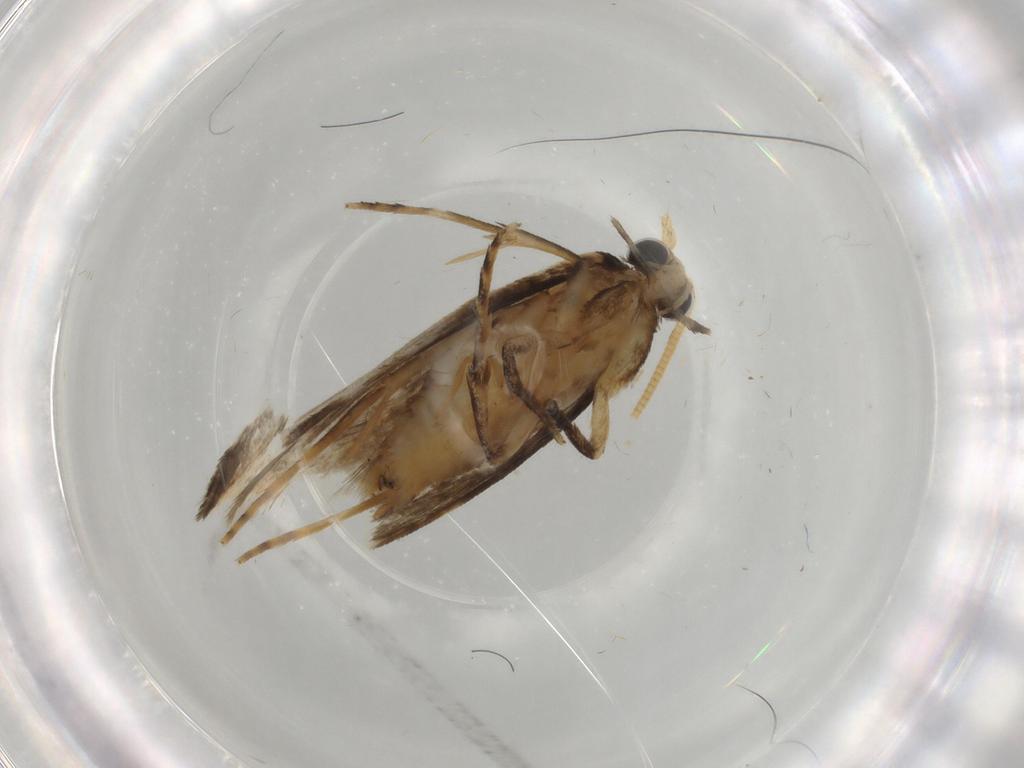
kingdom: Animalia
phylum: Arthropoda
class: Insecta
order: Lepidoptera
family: Tineidae
